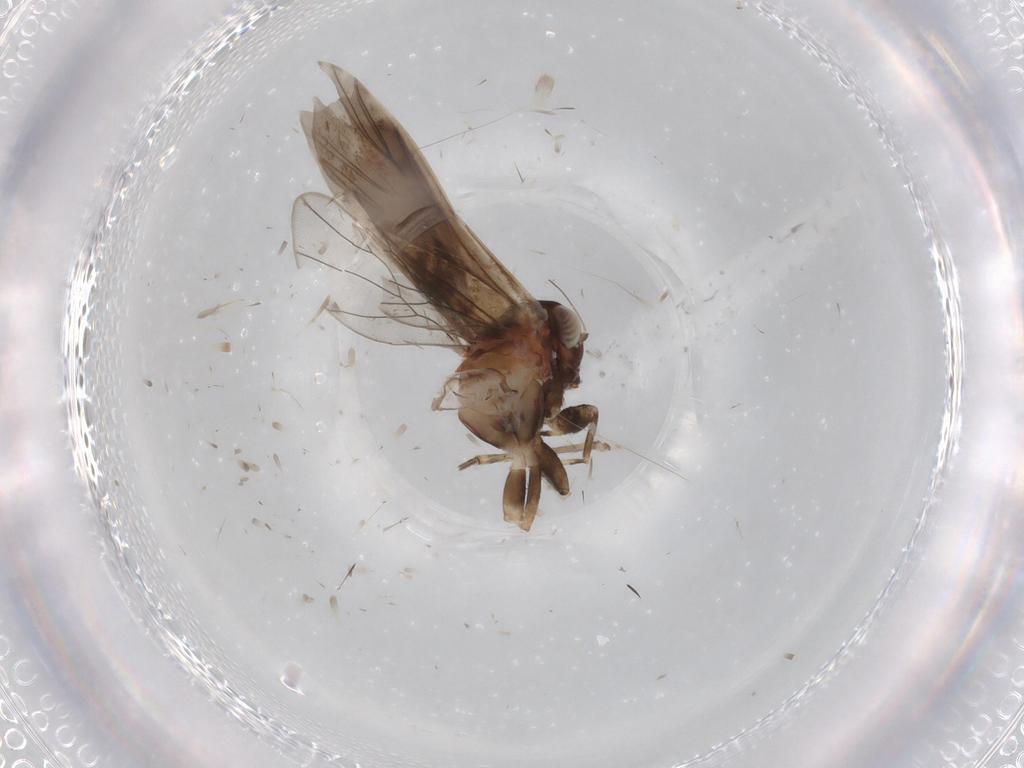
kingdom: Animalia
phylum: Arthropoda
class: Insecta
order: Psocodea
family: Amphientomidae
